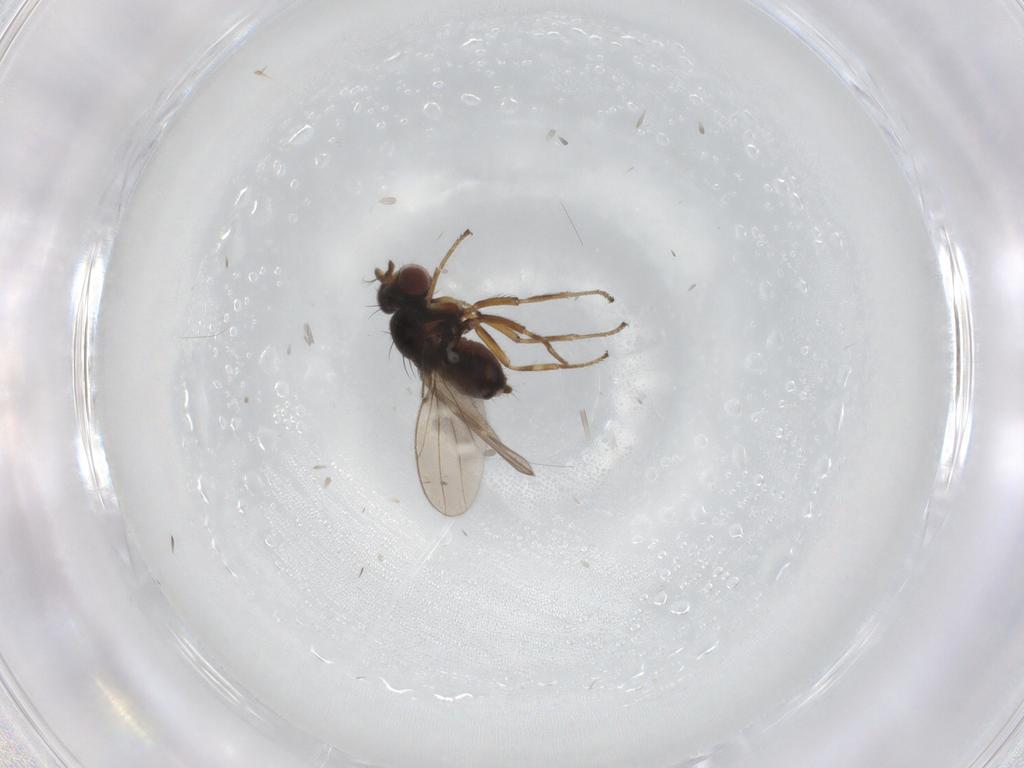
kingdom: Animalia
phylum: Arthropoda
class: Insecta
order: Diptera
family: Ephydridae
